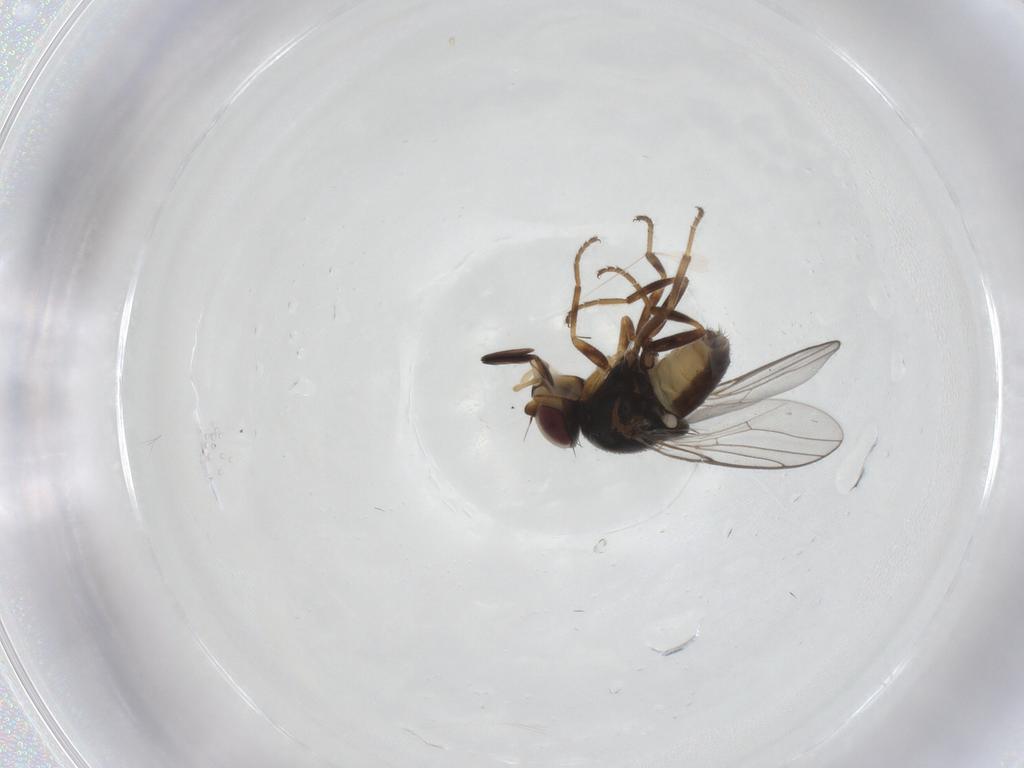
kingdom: Animalia
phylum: Arthropoda
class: Insecta
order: Diptera
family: Chloropidae
